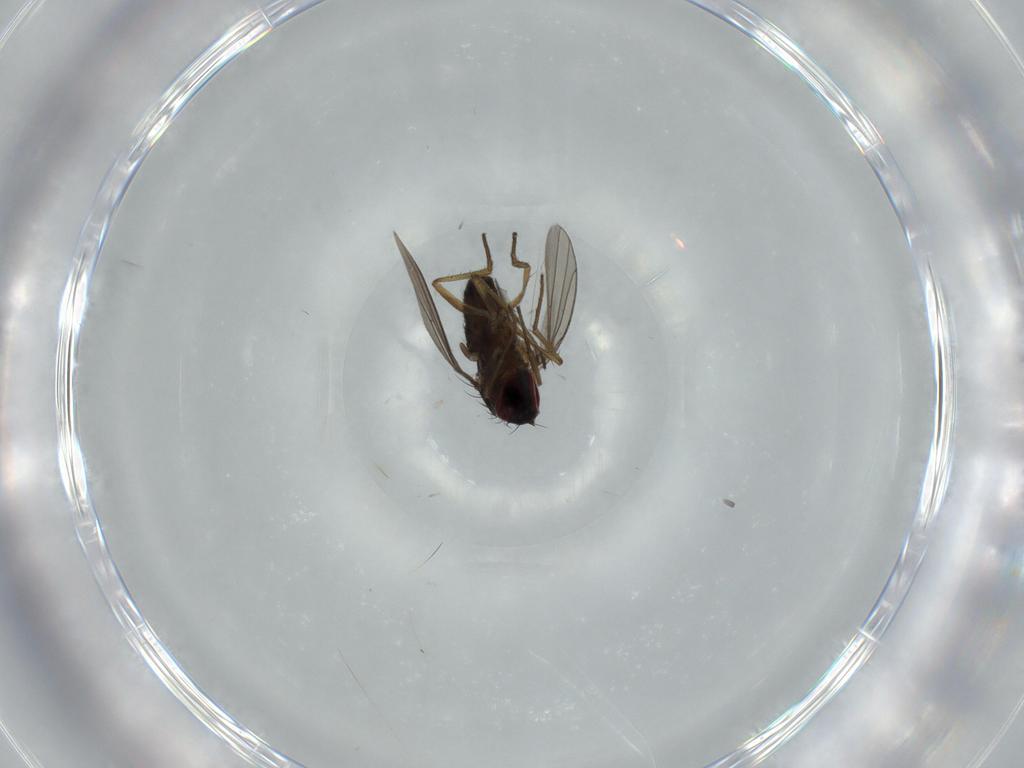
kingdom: Animalia
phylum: Arthropoda
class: Insecta
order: Diptera
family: Dolichopodidae
